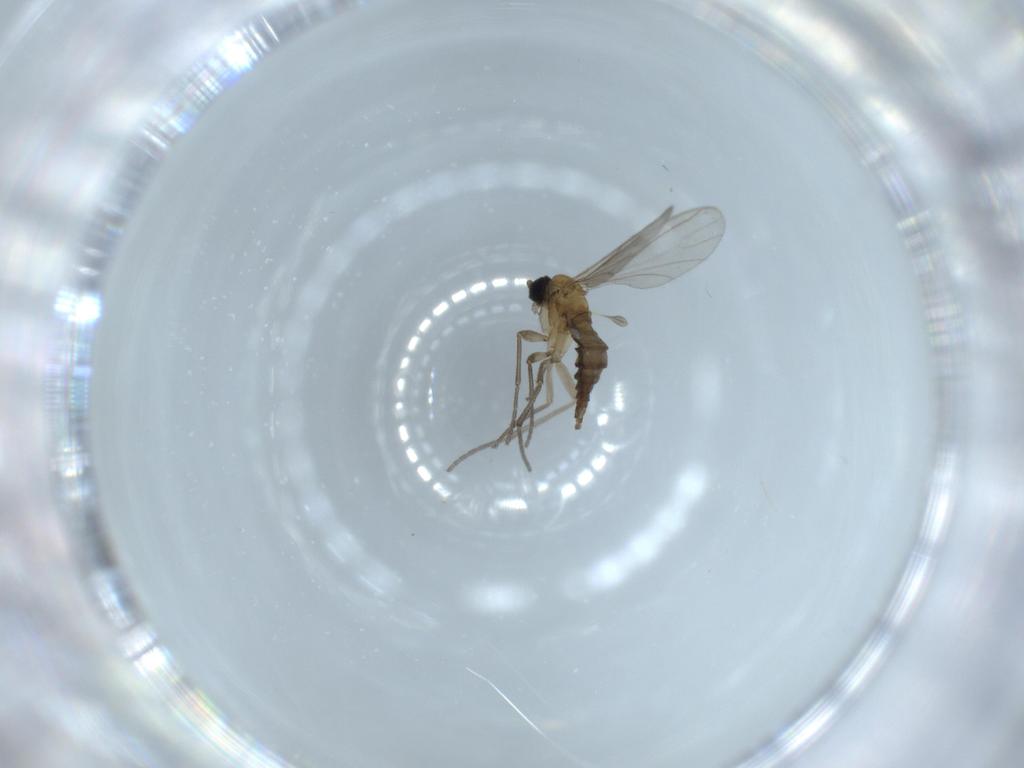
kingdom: Animalia
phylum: Arthropoda
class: Insecta
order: Diptera
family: Sciaridae
